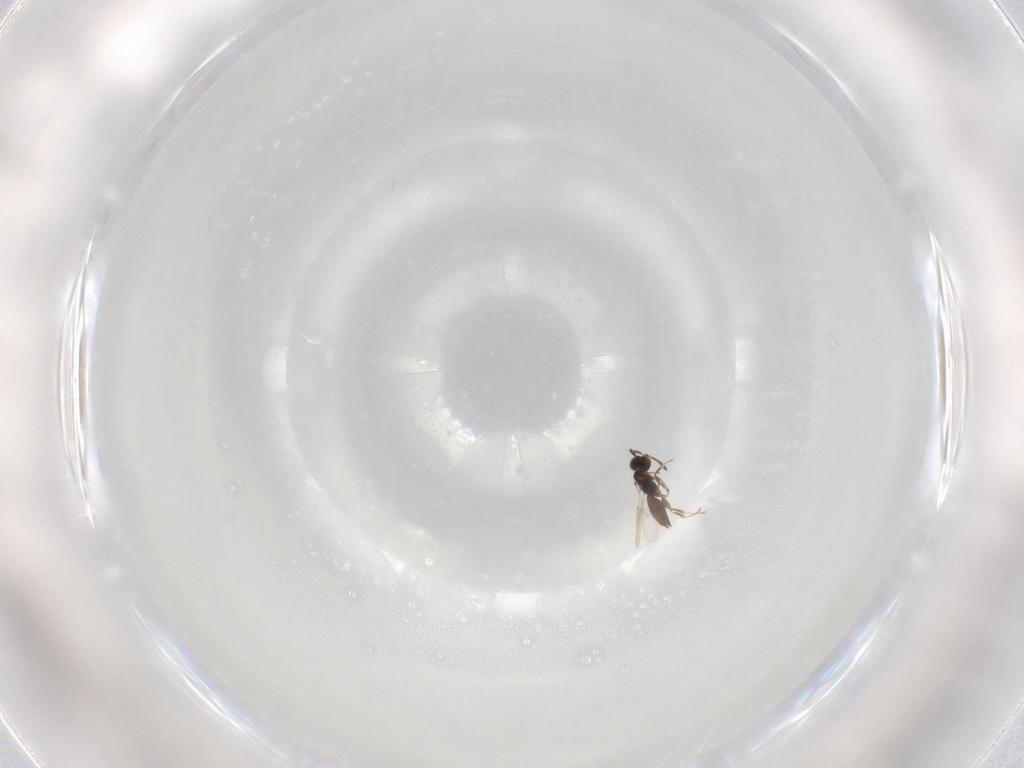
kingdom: Animalia
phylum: Arthropoda
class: Insecta
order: Hymenoptera
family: Scelionidae
